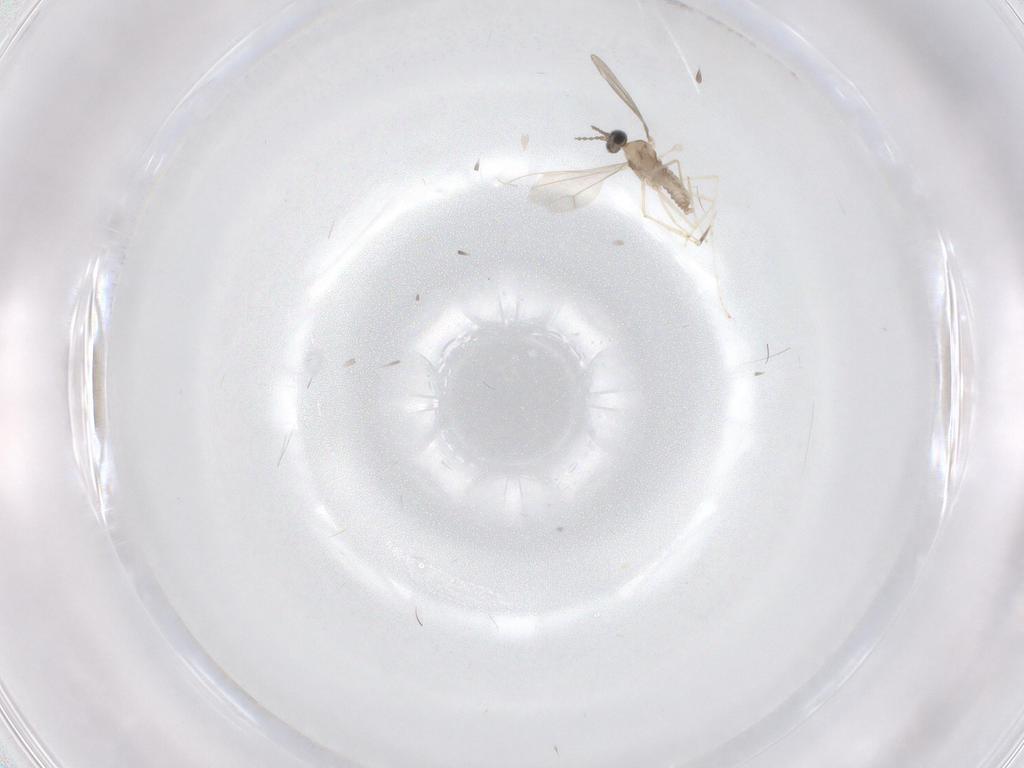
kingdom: Animalia
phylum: Arthropoda
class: Insecta
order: Diptera
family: Cecidomyiidae
